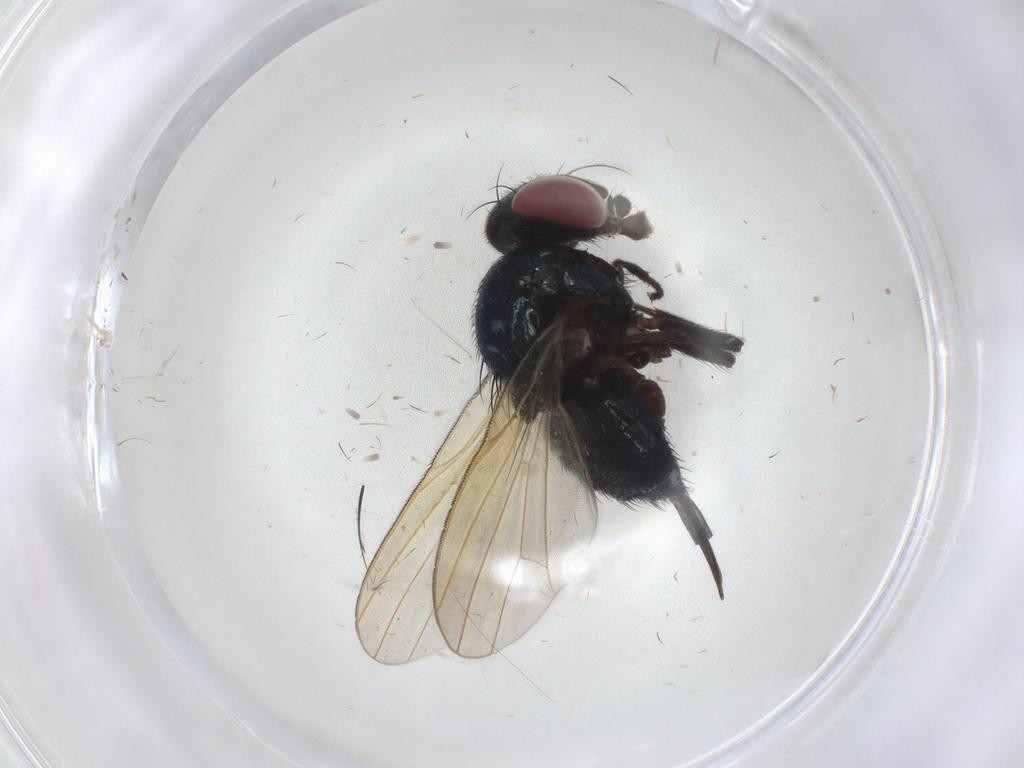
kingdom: Animalia
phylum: Arthropoda
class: Insecta
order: Diptera
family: Lonchaeidae
